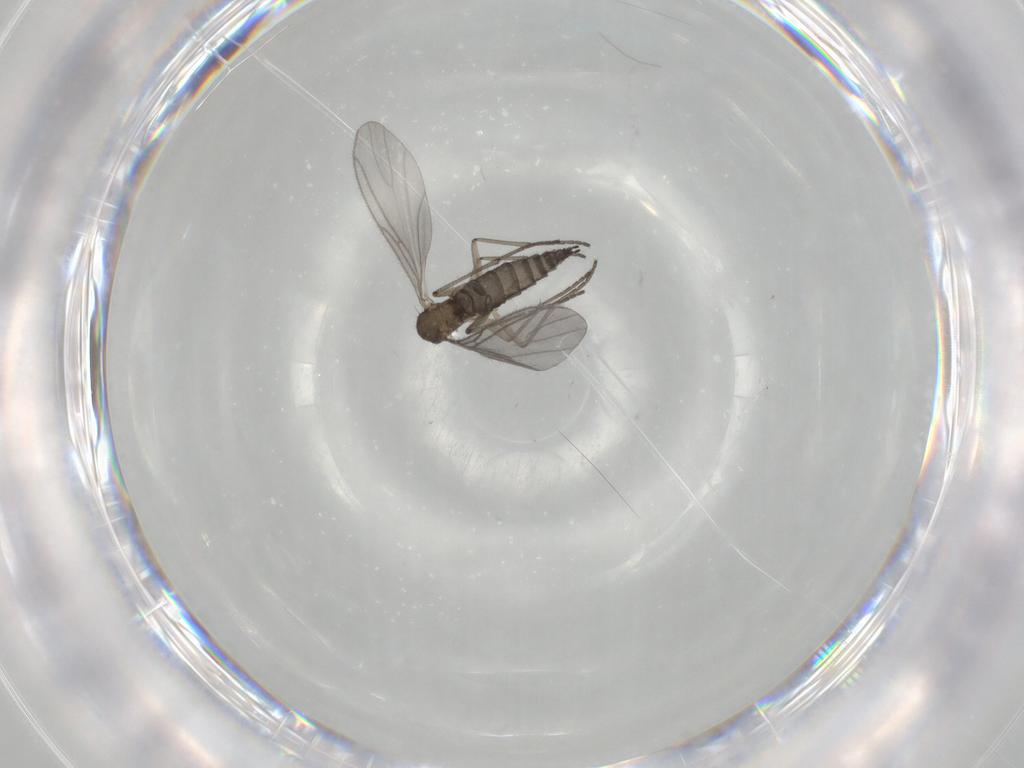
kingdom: Animalia
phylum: Arthropoda
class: Insecta
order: Diptera
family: Sciaridae
